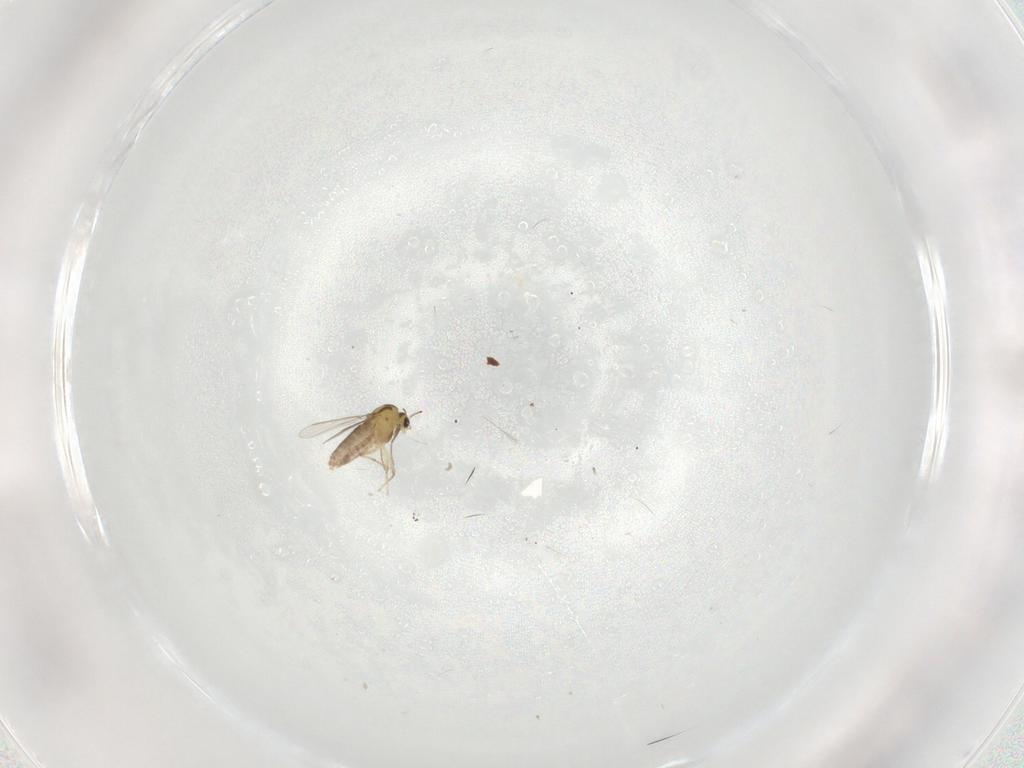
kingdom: Animalia
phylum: Arthropoda
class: Insecta
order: Diptera
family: Chironomidae
